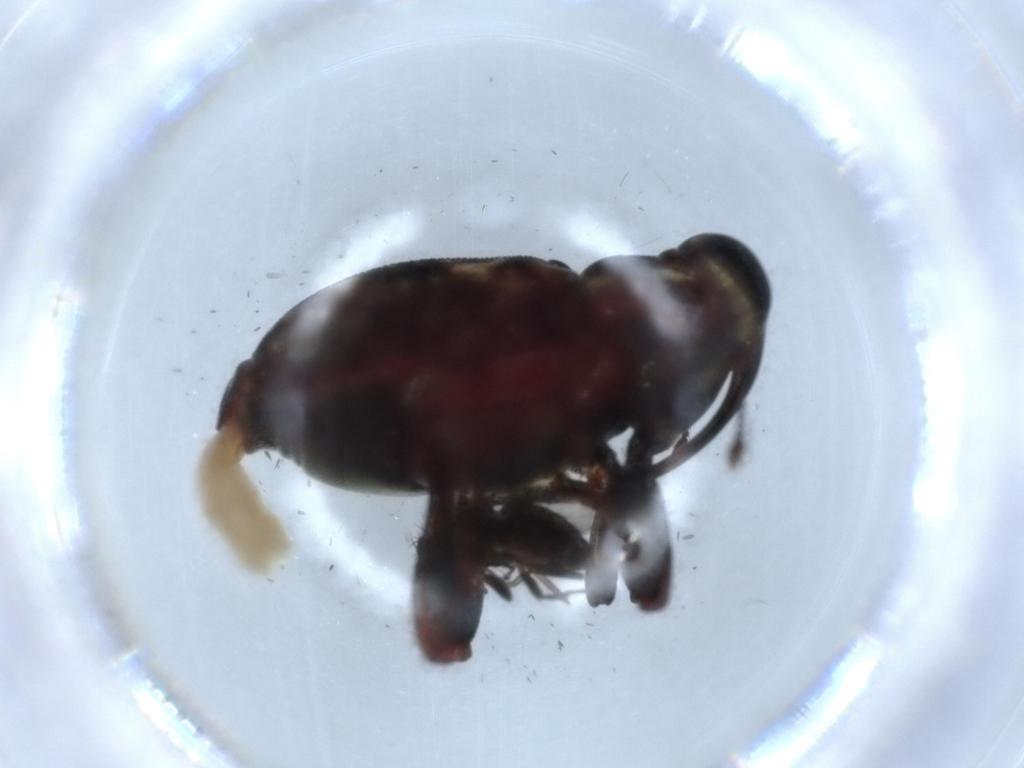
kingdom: Animalia
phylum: Arthropoda
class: Insecta
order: Coleoptera
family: Curculionidae
